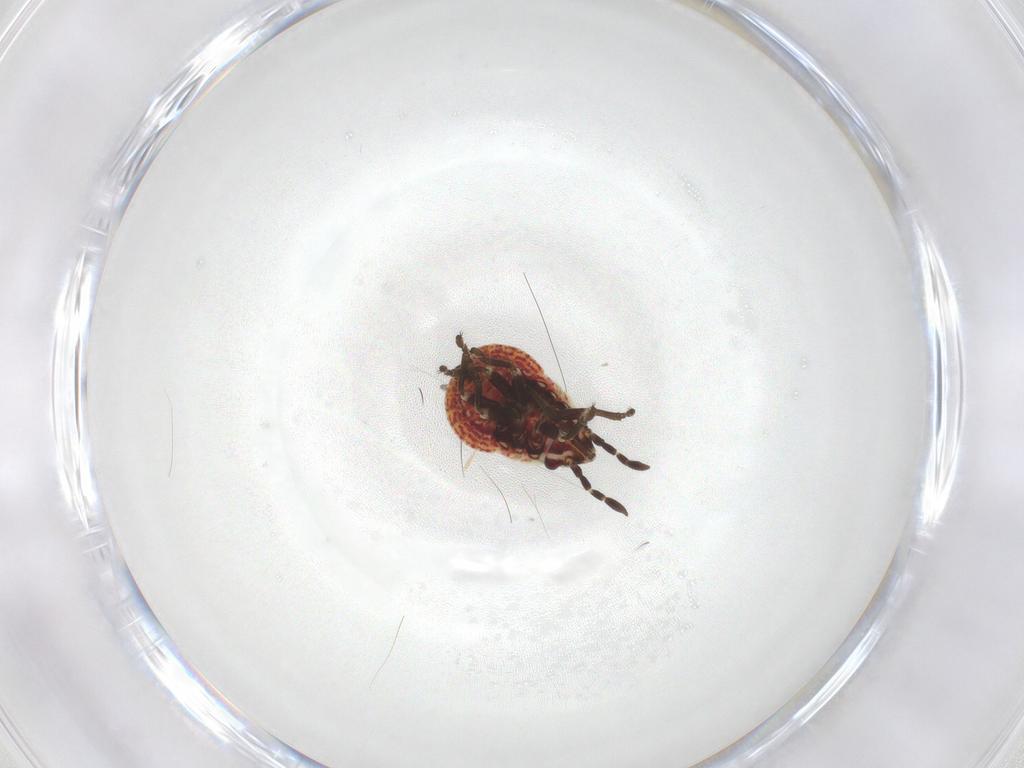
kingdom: Animalia
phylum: Arthropoda
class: Insecta
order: Hemiptera
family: Lygaeidae
